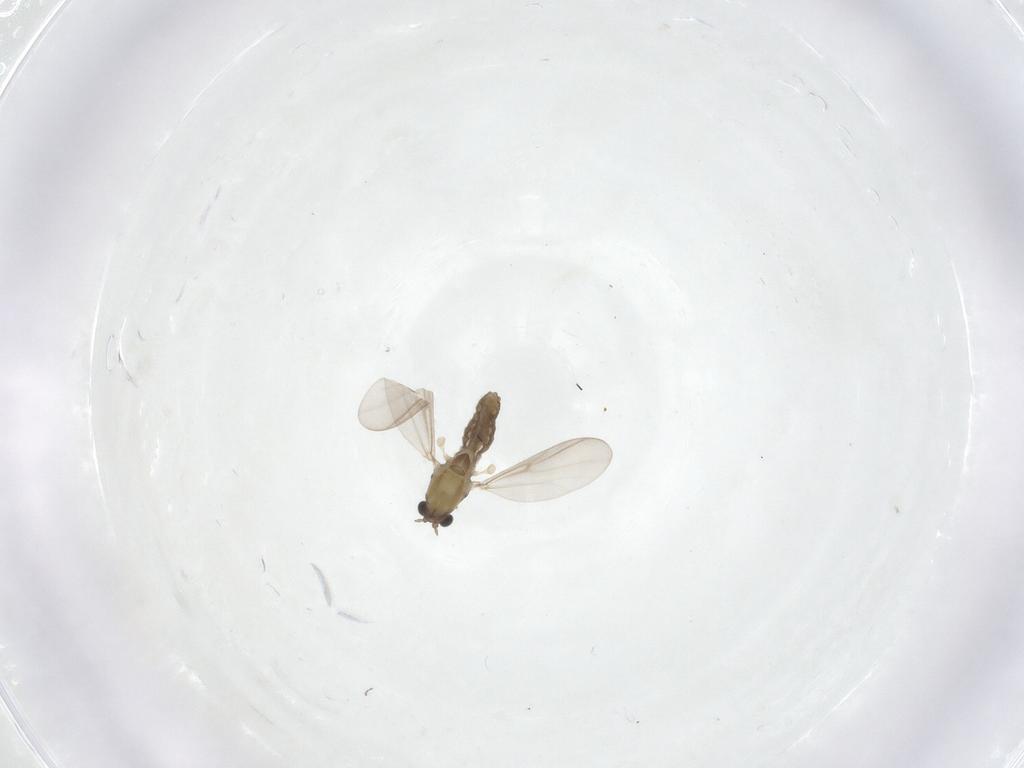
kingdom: Animalia
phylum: Arthropoda
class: Insecta
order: Diptera
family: Chironomidae
